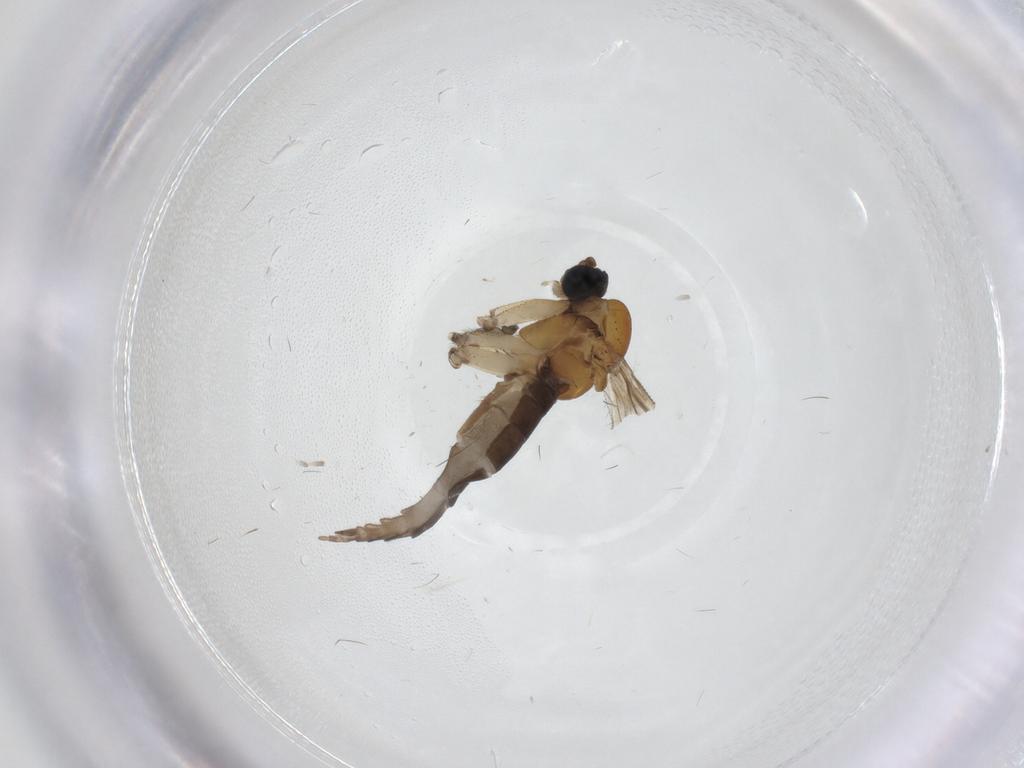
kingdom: Animalia
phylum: Arthropoda
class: Insecta
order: Diptera
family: Sciaridae
